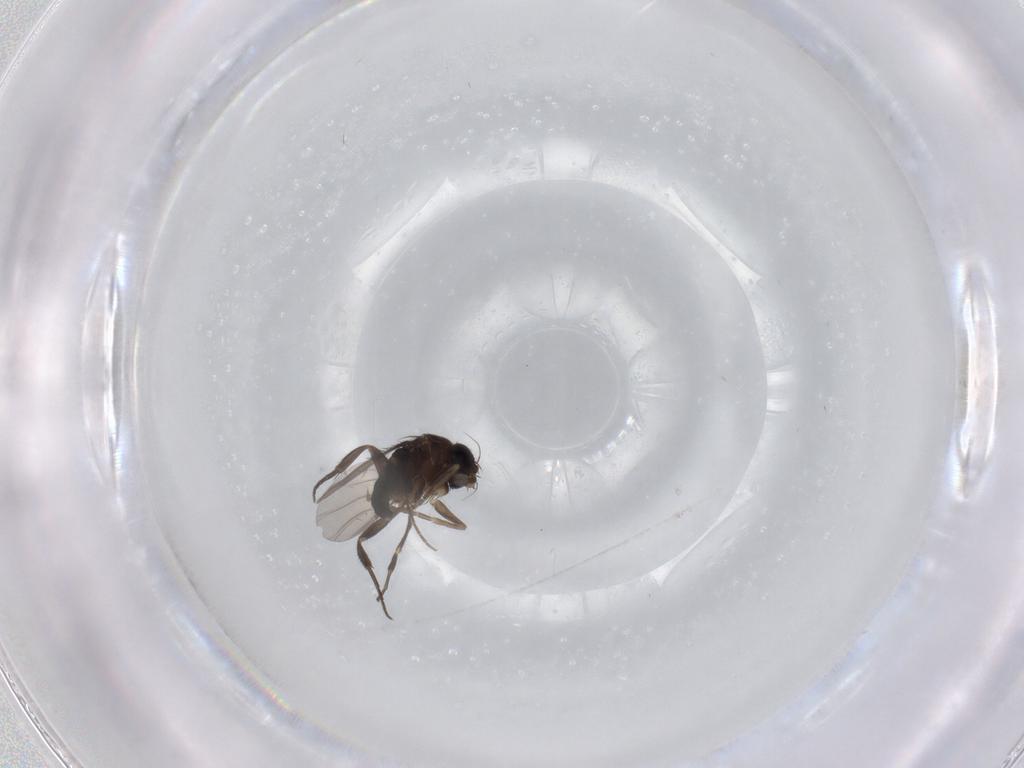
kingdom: Animalia
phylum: Arthropoda
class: Insecta
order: Diptera
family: Phoridae
